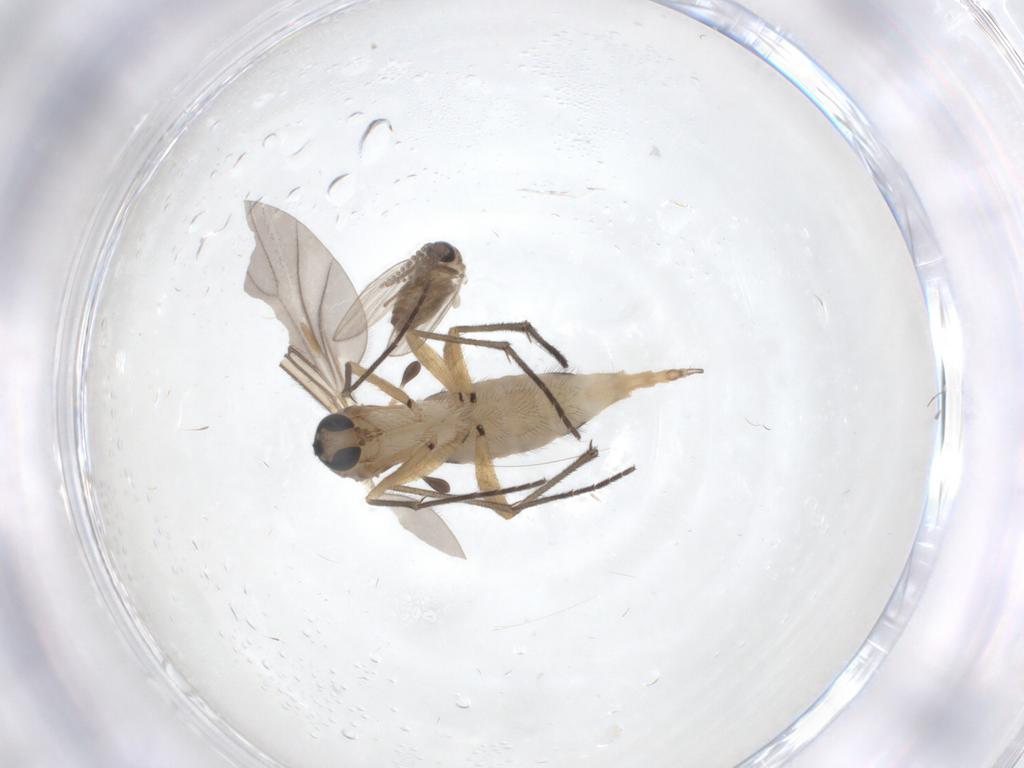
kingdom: Animalia
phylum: Arthropoda
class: Insecta
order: Diptera
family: Sciaridae
